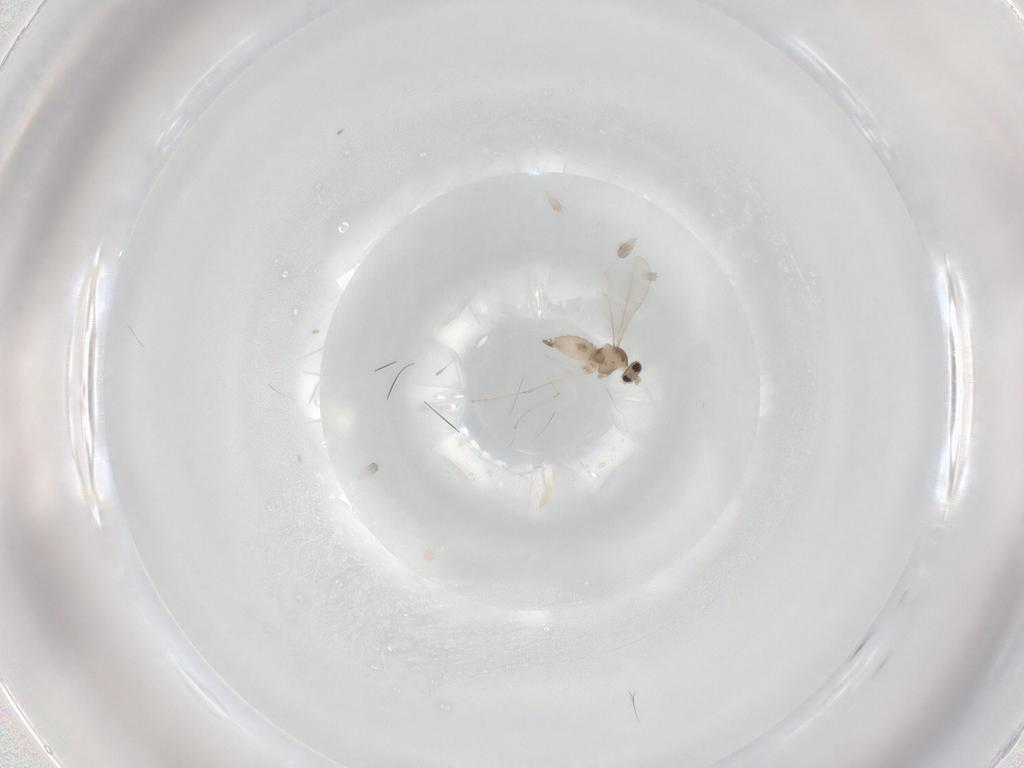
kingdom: Animalia
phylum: Arthropoda
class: Insecta
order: Diptera
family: Cecidomyiidae
